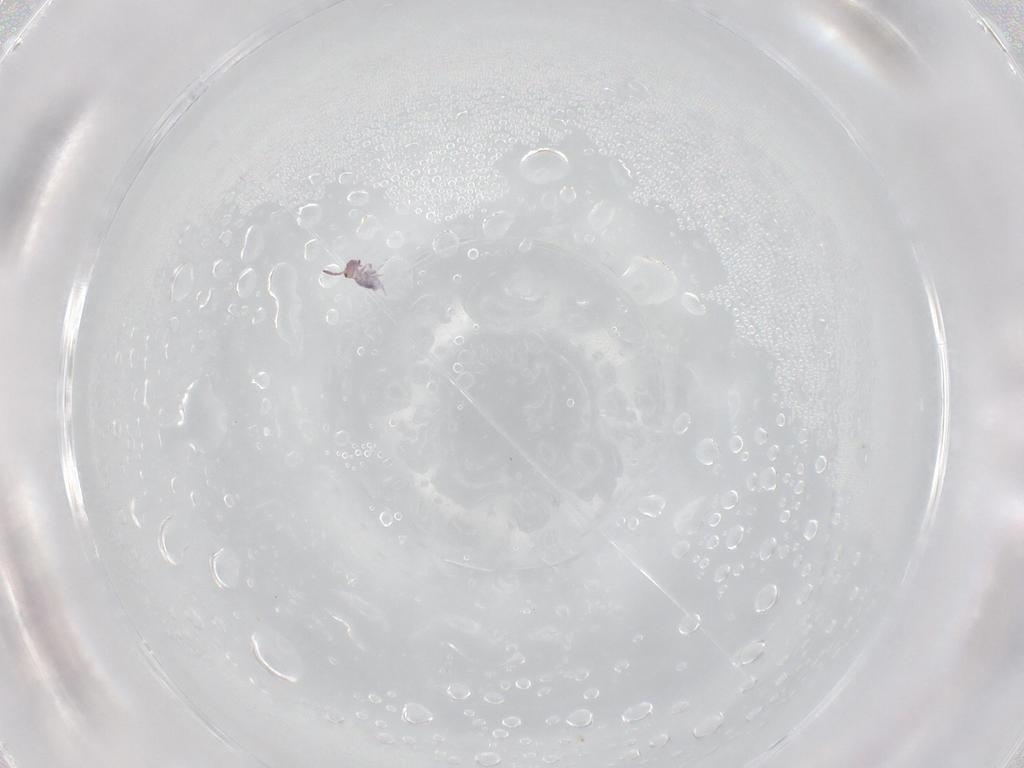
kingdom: Animalia
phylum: Arthropoda
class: Collembola
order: Symphypleona
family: Bourletiellidae
